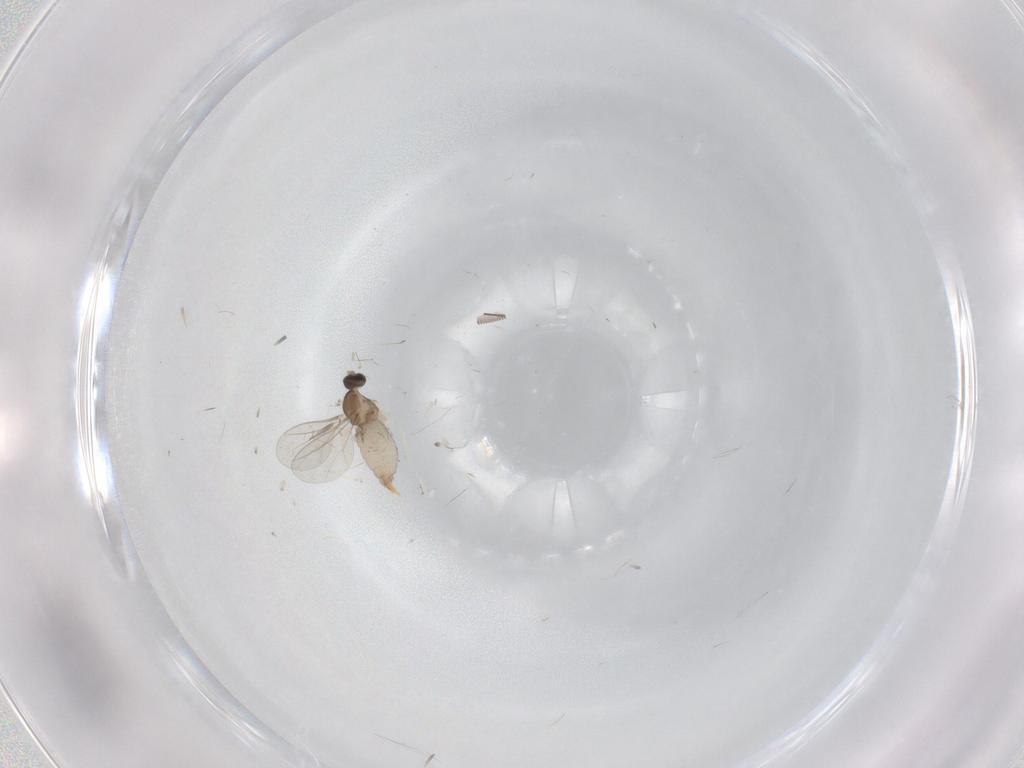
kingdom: Animalia
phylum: Arthropoda
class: Insecta
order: Diptera
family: Cecidomyiidae
